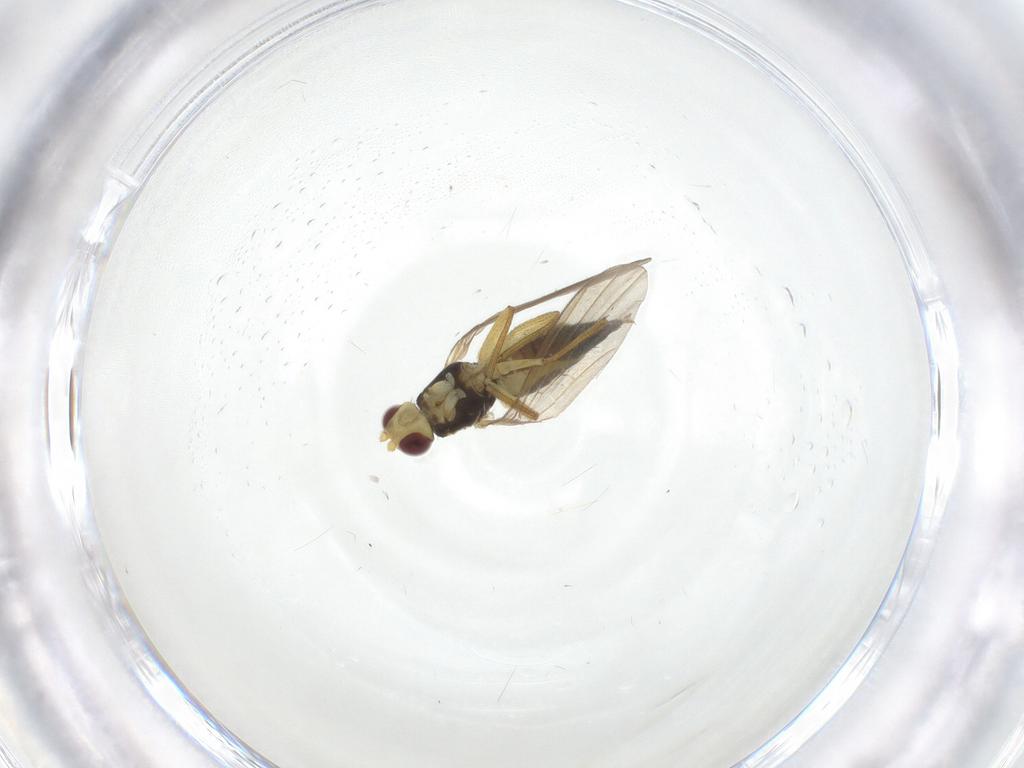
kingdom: Animalia
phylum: Arthropoda
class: Insecta
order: Diptera
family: Agromyzidae
